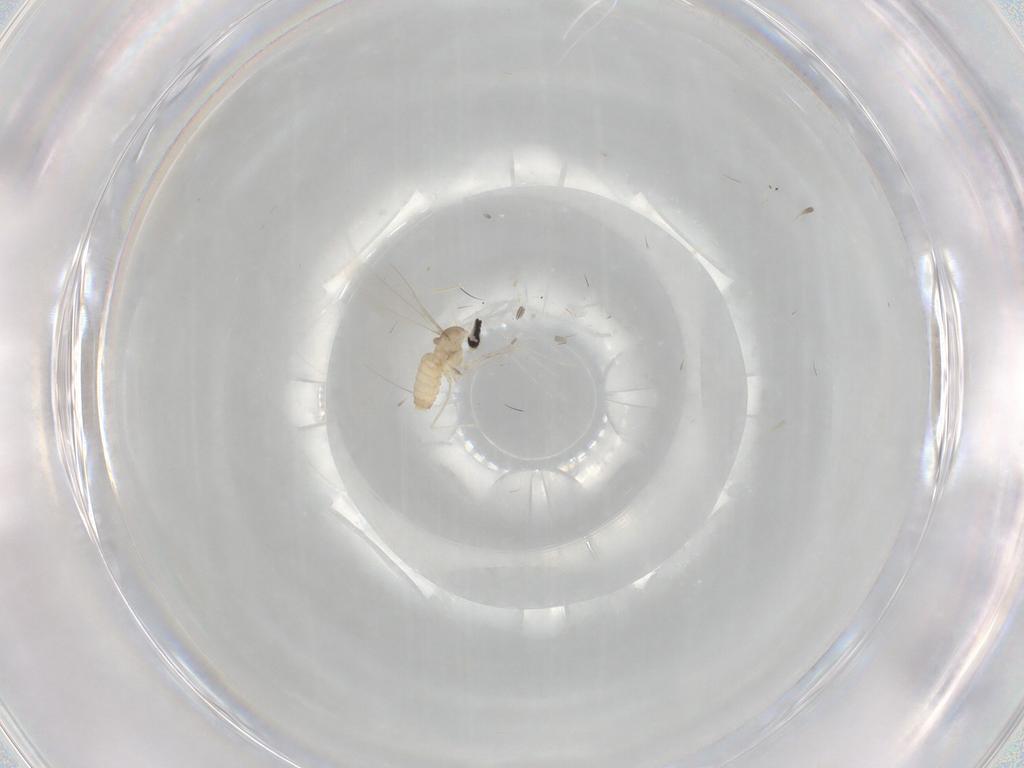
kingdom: Animalia
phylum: Arthropoda
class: Insecta
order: Diptera
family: Cecidomyiidae
